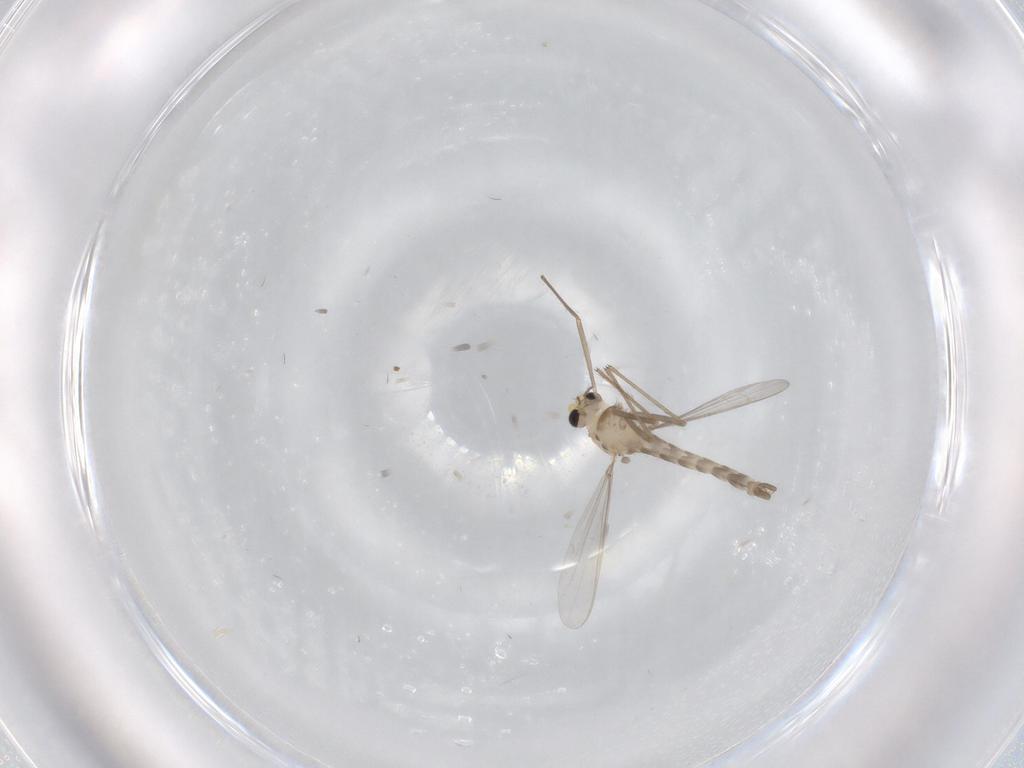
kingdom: Animalia
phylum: Arthropoda
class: Insecta
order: Diptera
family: Chironomidae
